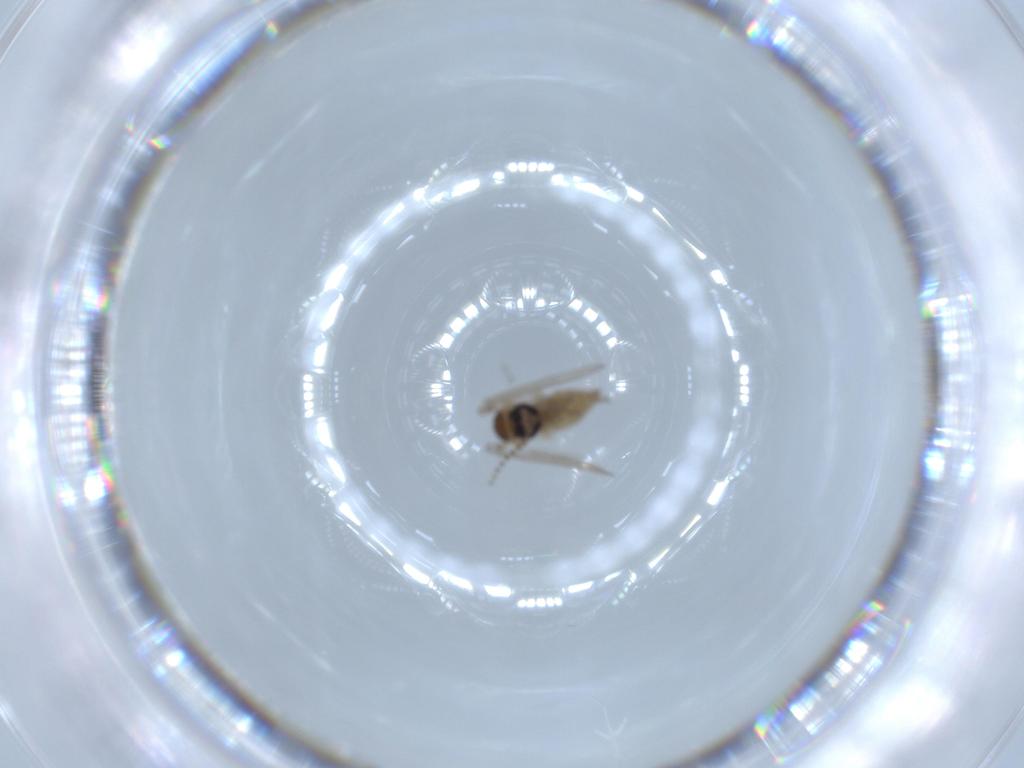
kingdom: Animalia
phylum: Arthropoda
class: Insecta
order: Diptera
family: Psychodidae
